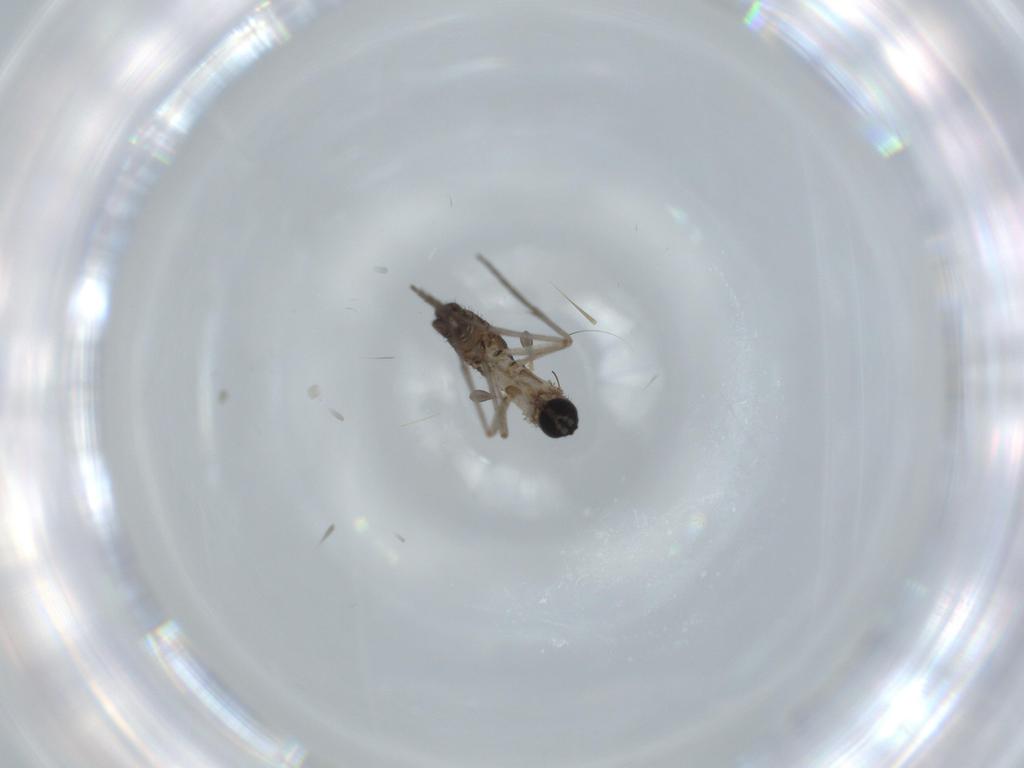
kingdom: Animalia
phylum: Arthropoda
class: Insecta
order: Diptera
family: Sciaridae
